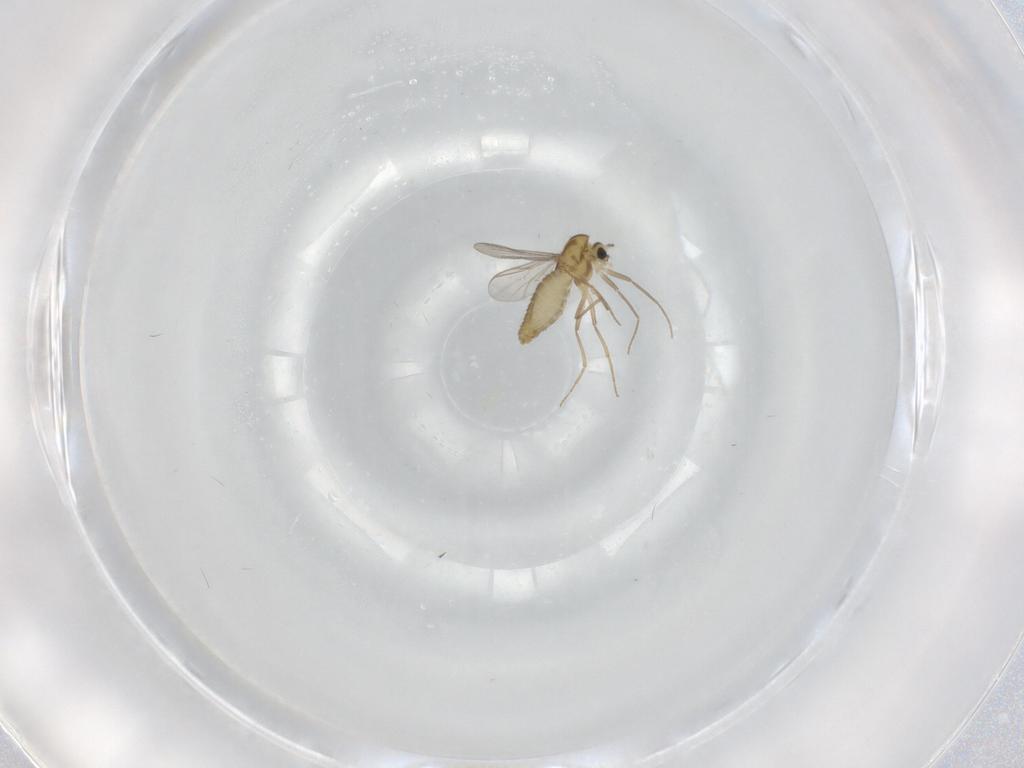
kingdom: Animalia
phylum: Arthropoda
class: Insecta
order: Diptera
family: Chironomidae
